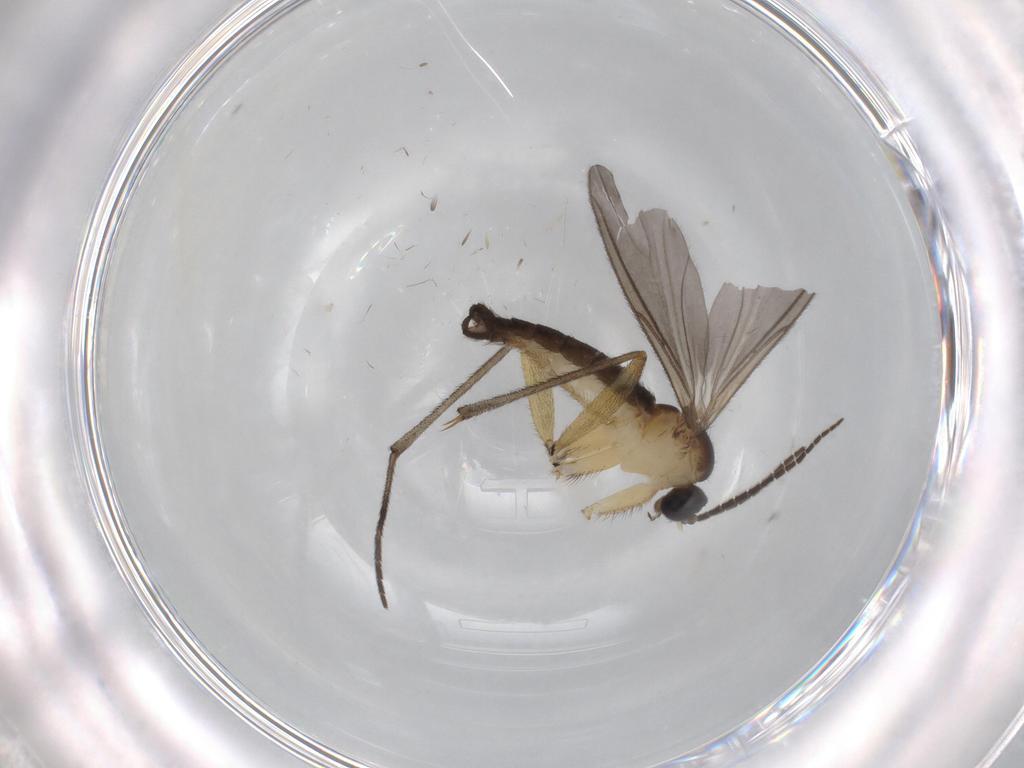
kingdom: Animalia
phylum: Arthropoda
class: Insecta
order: Diptera
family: Sciaridae
